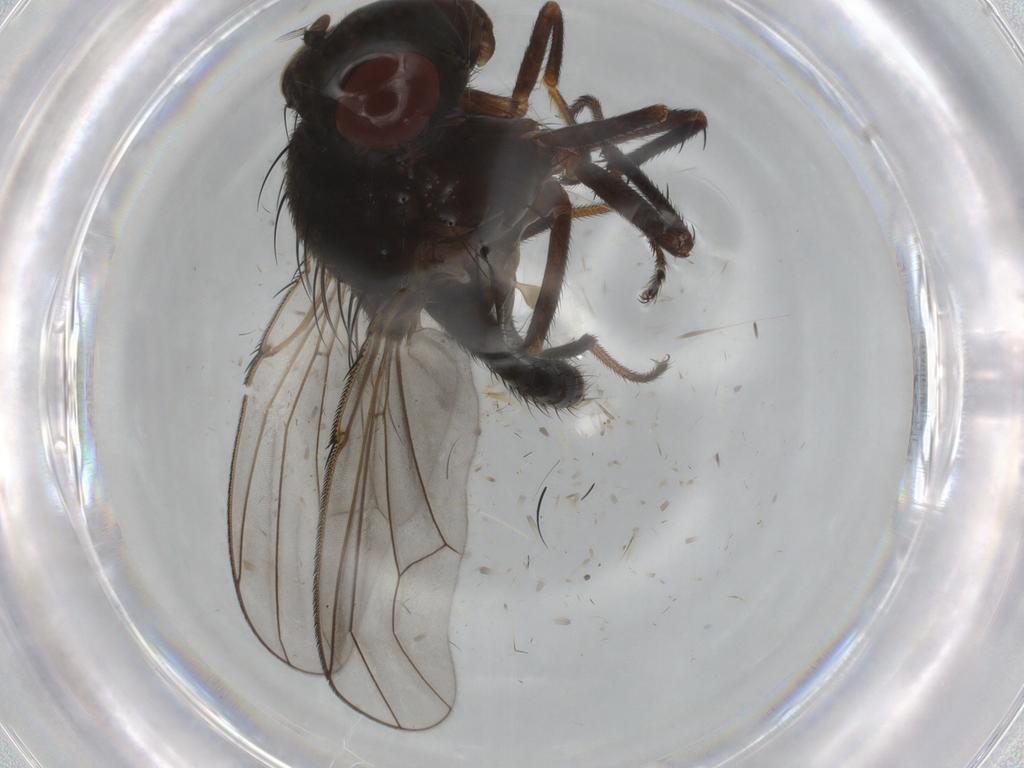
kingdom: Animalia
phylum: Arthropoda
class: Insecta
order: Diptera
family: Ephydridae
